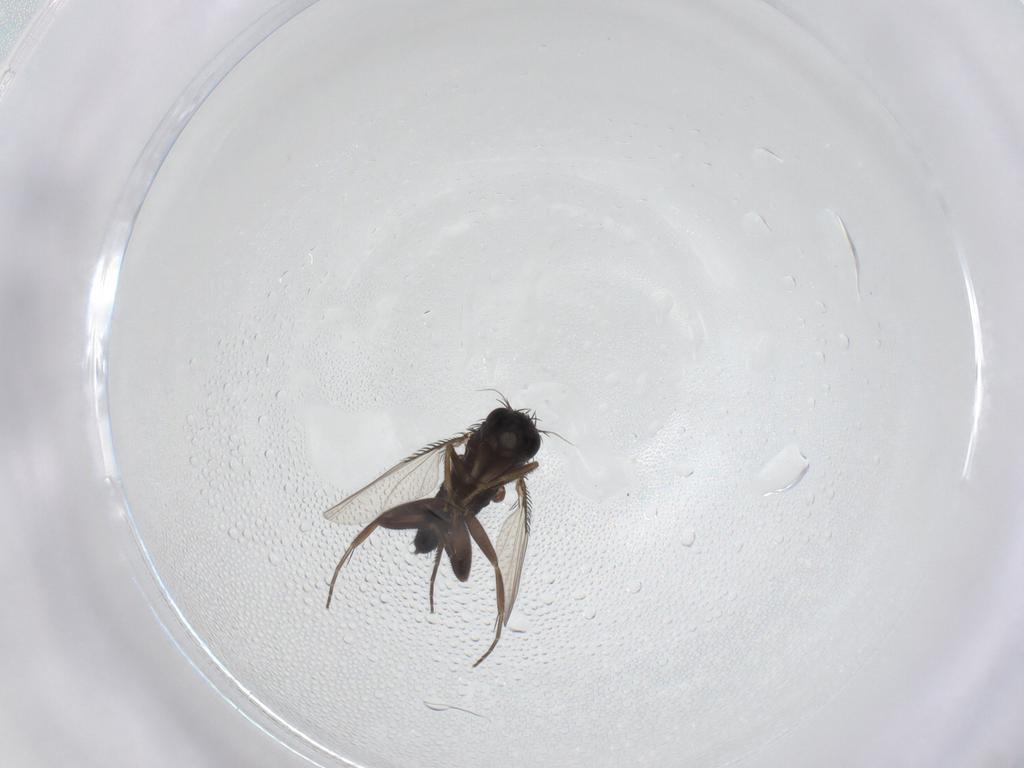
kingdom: Animalia
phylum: Arthropoda
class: Insecta
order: Diptera
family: Phoridae
